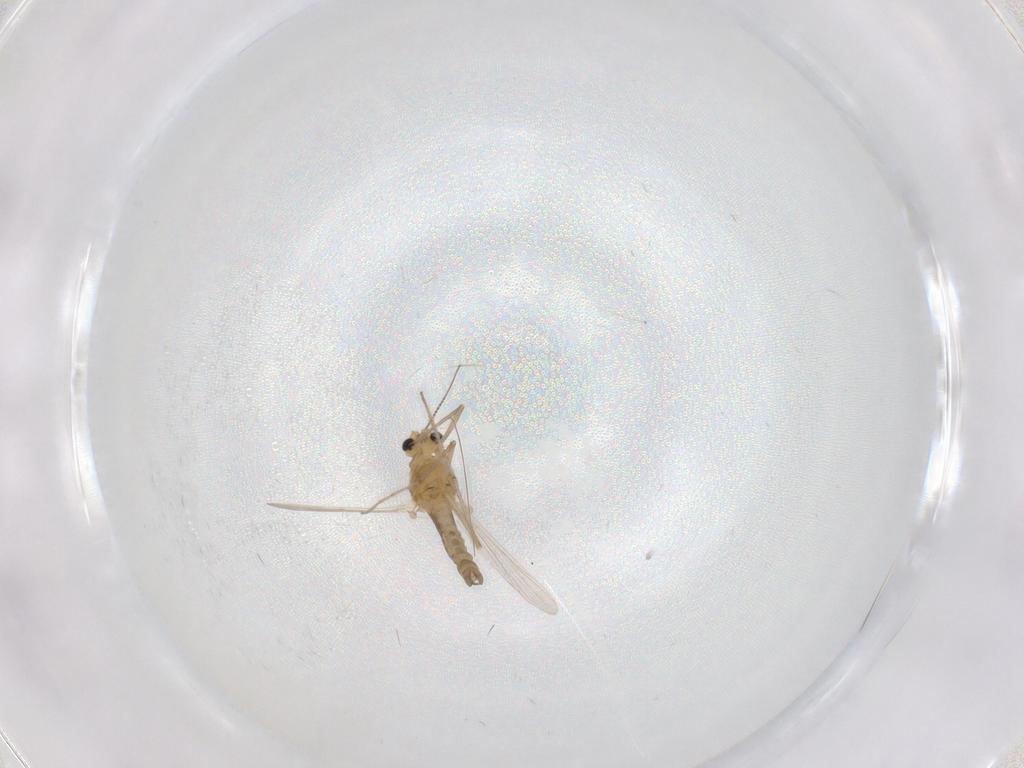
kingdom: Animalia
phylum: Arthropoda
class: Insecta
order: Diptera
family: Chironomidae
